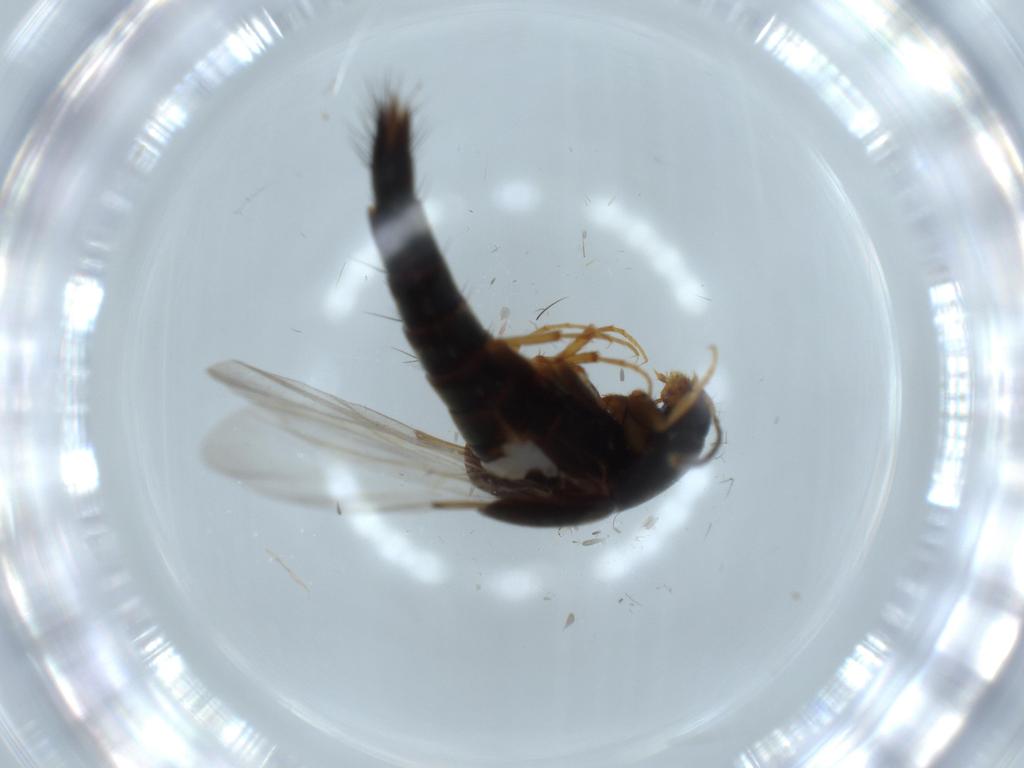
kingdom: Animalia
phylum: Arthropoda
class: Insecta
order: Coleoptera
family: Staphylinidae
